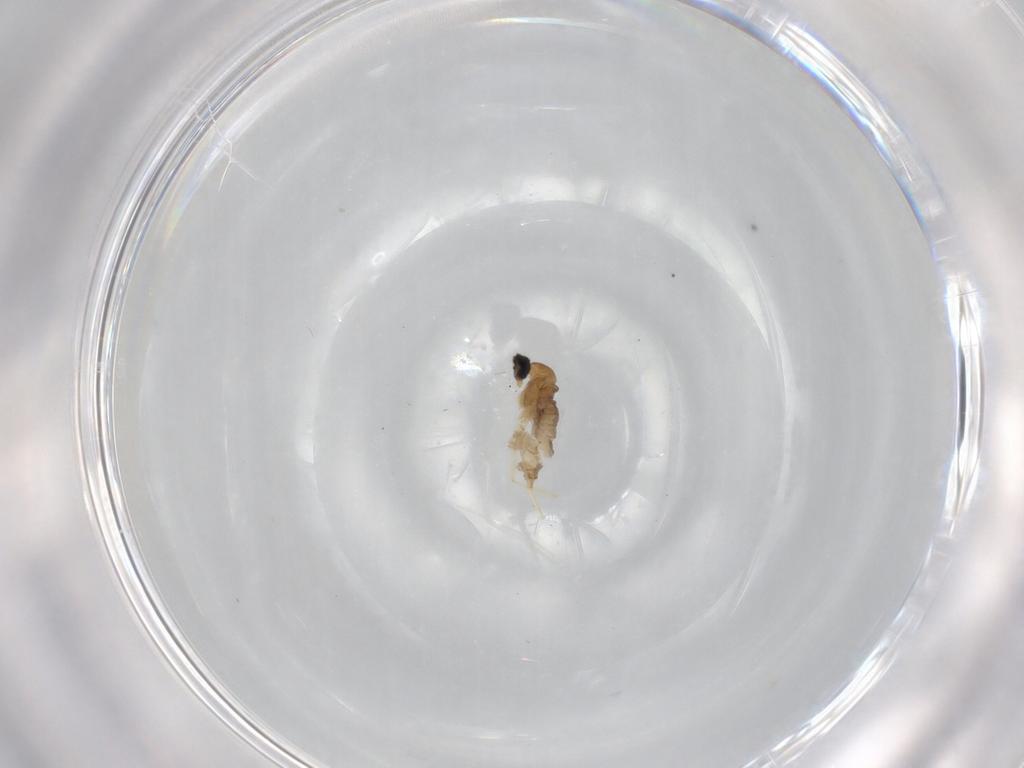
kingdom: Animalia
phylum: Arthropoda
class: Insecta
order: Diptera
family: Cecidomyiidae
